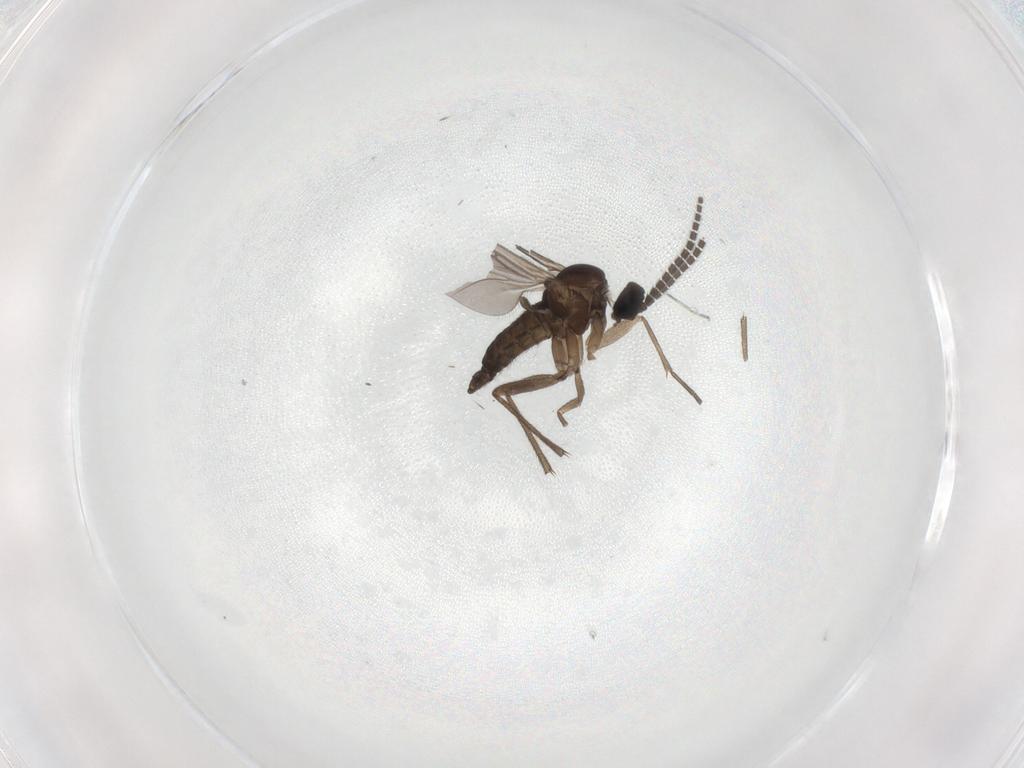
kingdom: Animalia
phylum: Arthropoda
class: Insecta
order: Diptera
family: Sciaridae
